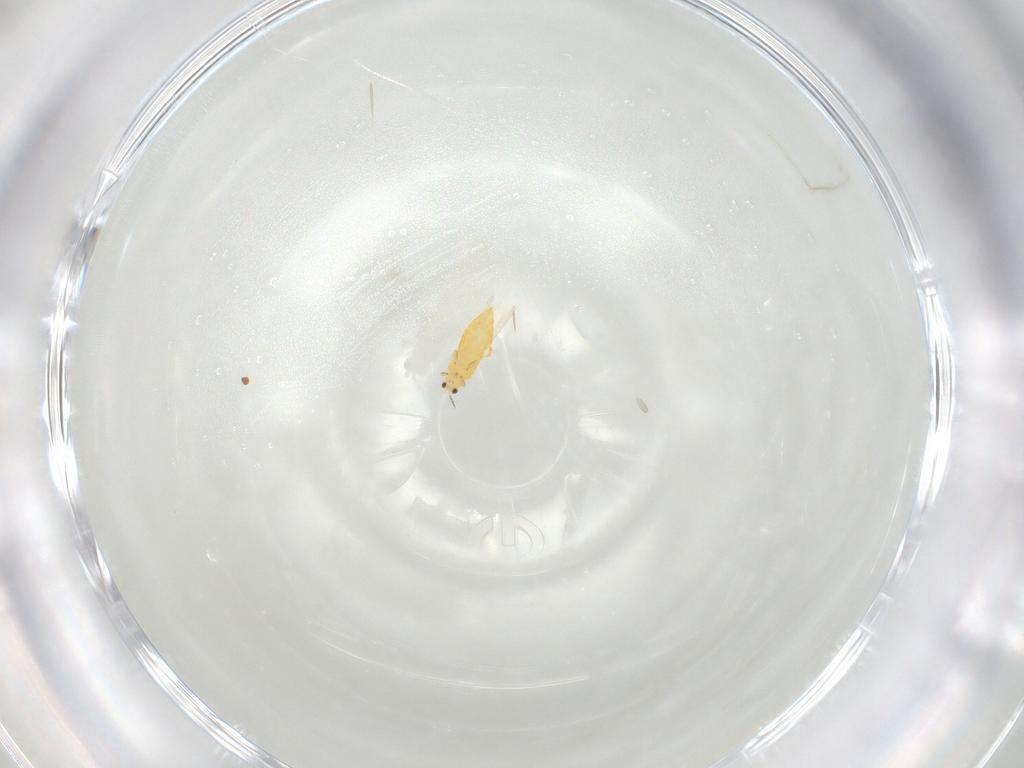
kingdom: Animalia
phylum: Arthropoda
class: Insecta
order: Thysanoptera
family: Thripidae
